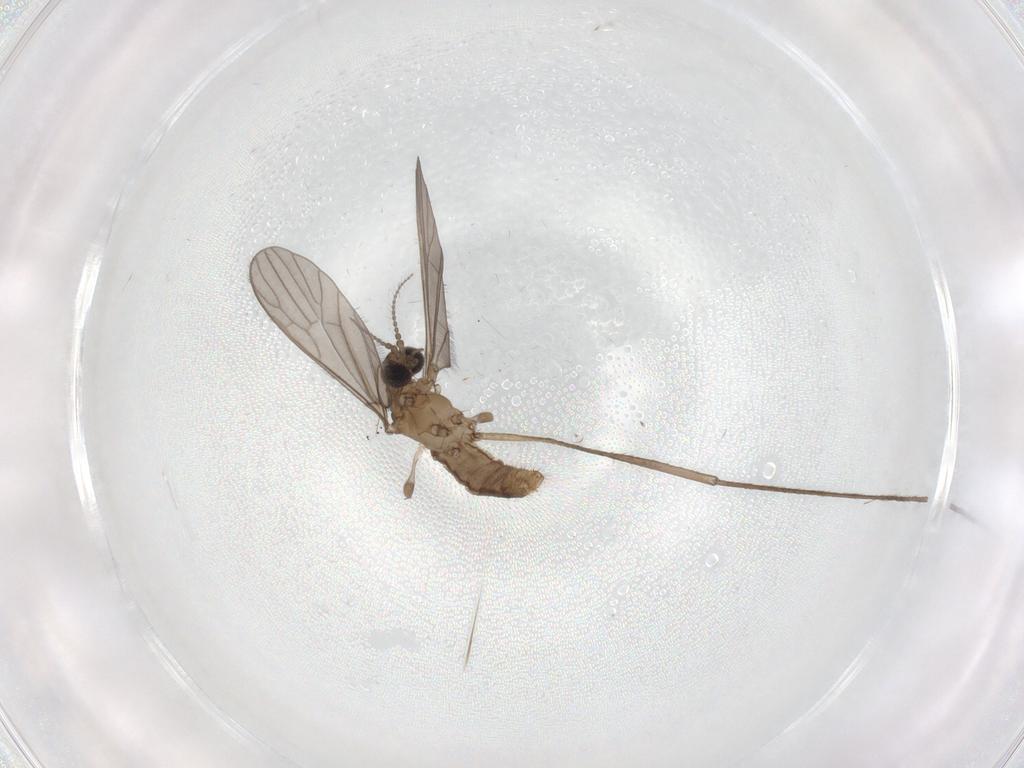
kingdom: Animalia
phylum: Arthropoda
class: Insecta
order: Diptera
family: Cecidomyiidae
